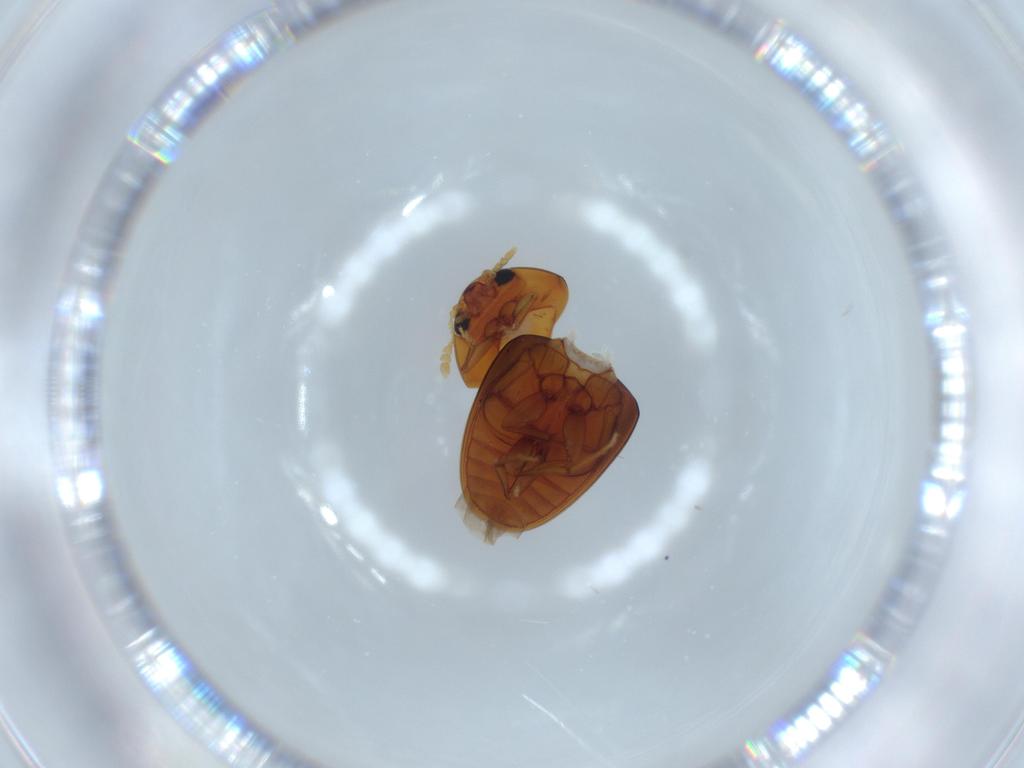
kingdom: Animalia
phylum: Arthropoda
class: Insecta
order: Coleoptera
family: Phalacridae
